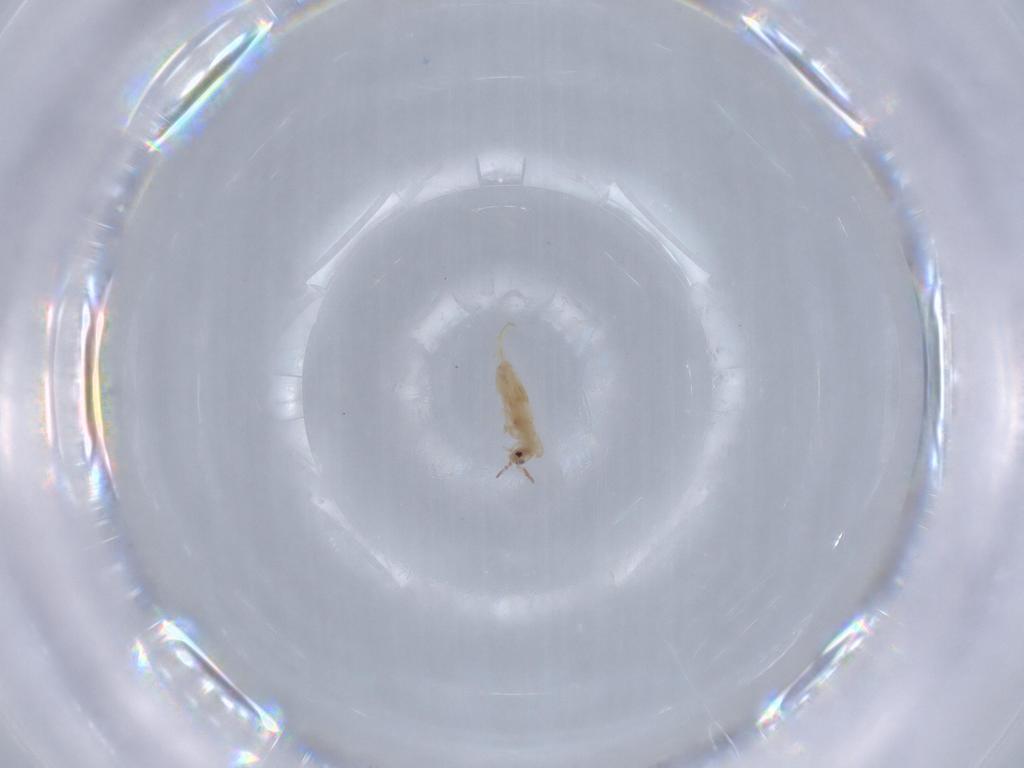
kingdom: Animalia
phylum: Arthropoda
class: Collembola
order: Entomobryomorpha
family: Entomobryidae
